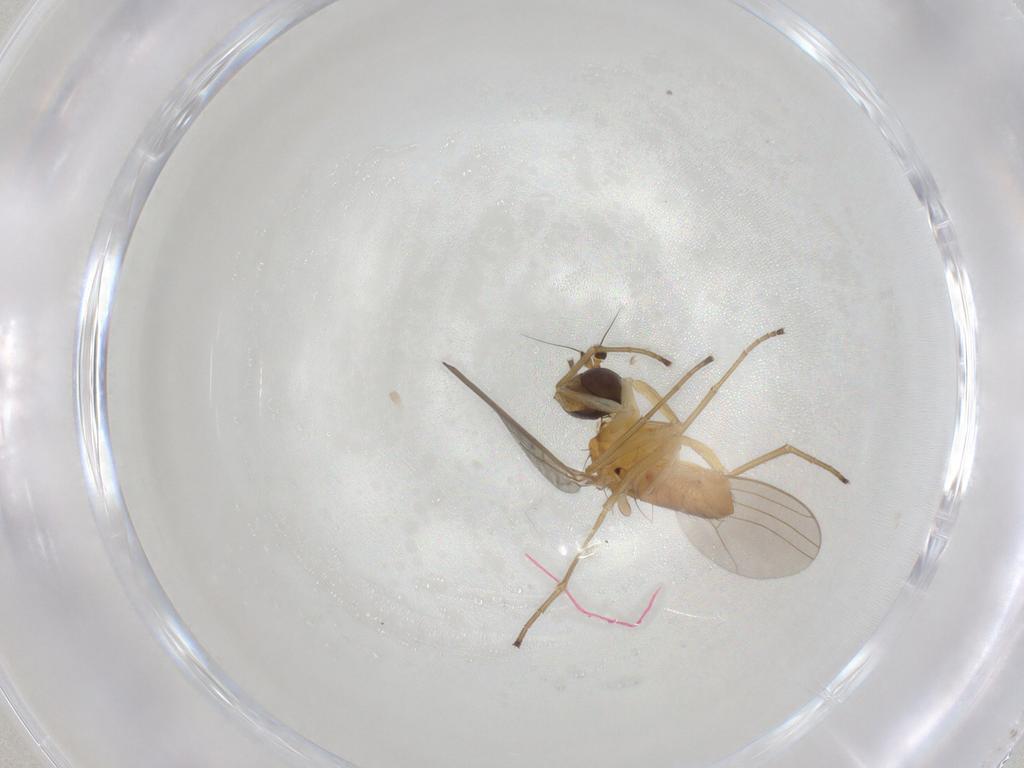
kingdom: Animalia
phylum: Arthropoda
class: Insecta
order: Diptera
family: Dolichopodidae
